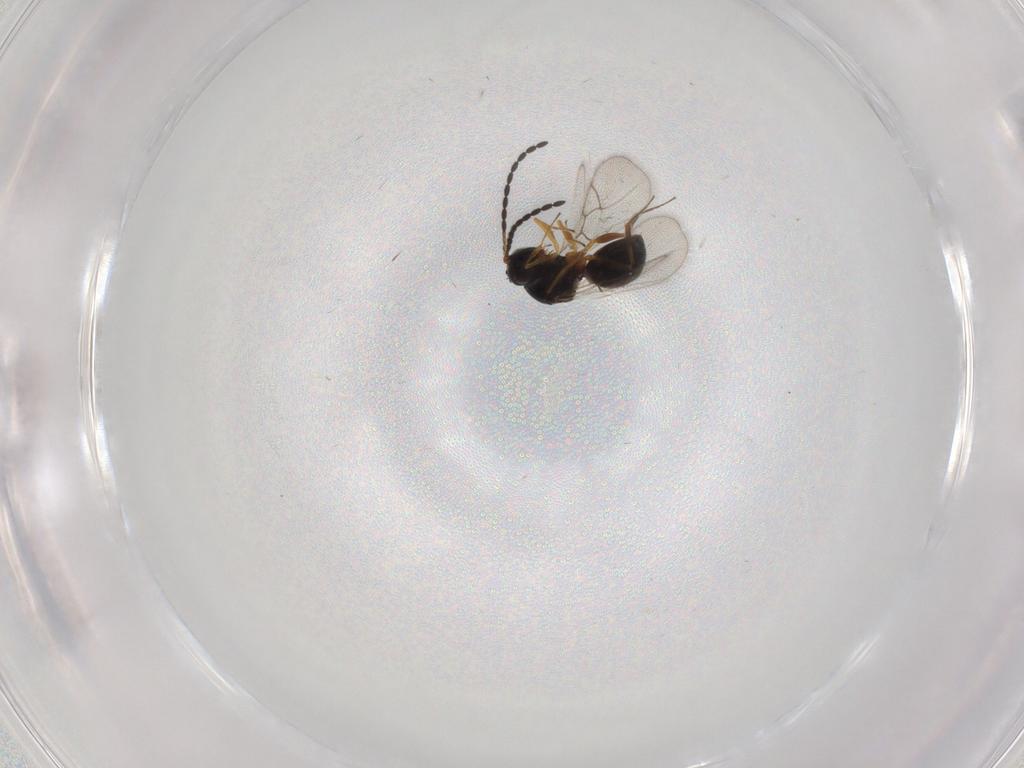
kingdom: Animalia
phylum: Arthropoda
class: Insecta
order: Hymenoptera
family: Figitidae
